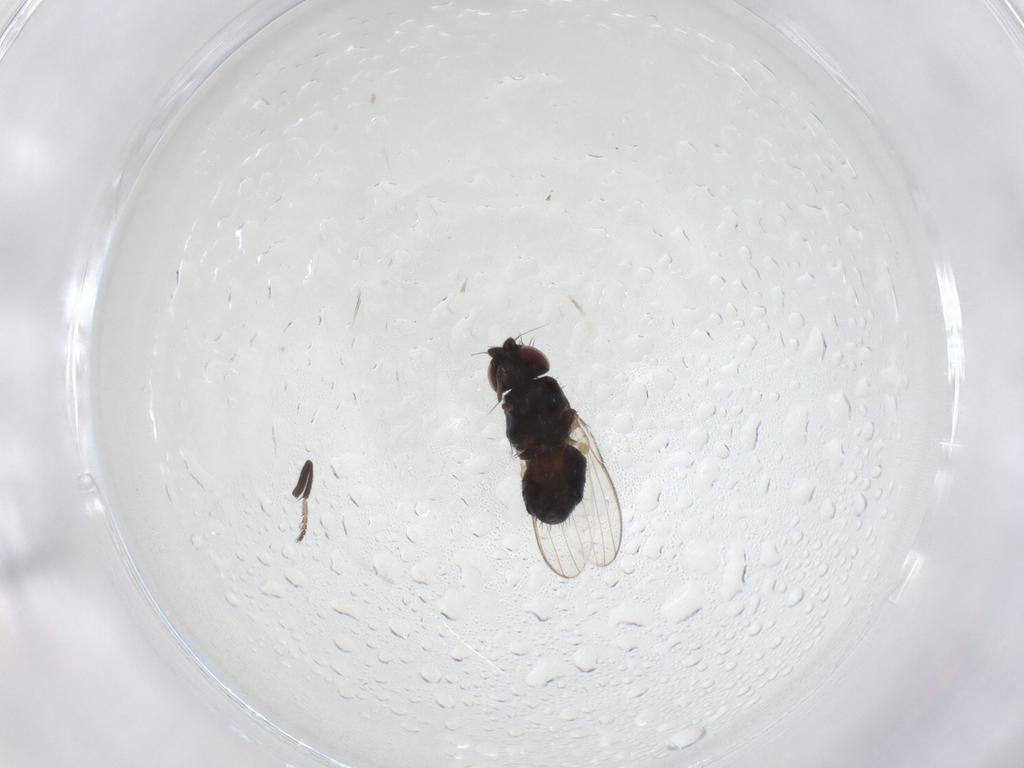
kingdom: Animalia
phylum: Arthropoda
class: Insecta
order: Diptera
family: Milichiidae
